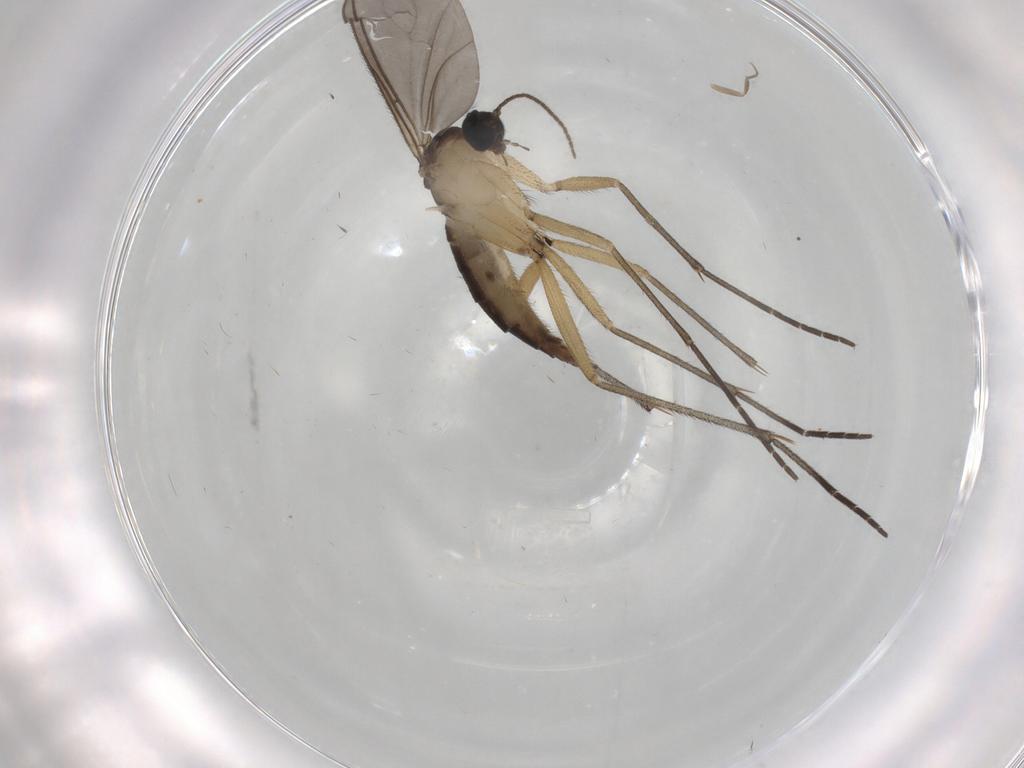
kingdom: Animalia
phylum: Arthropoda
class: Insecta
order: Diptera
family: Sciaridae
